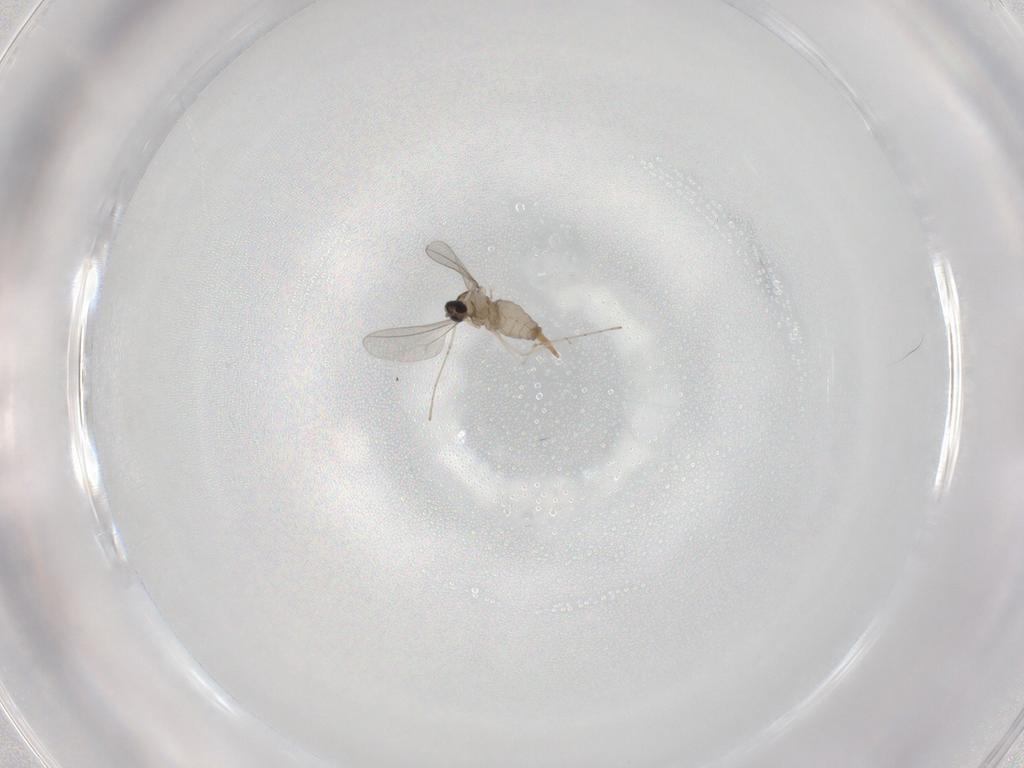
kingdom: Animalia
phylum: Arthropoda
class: Insecta
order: Diptera
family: Cecidomyiidae
